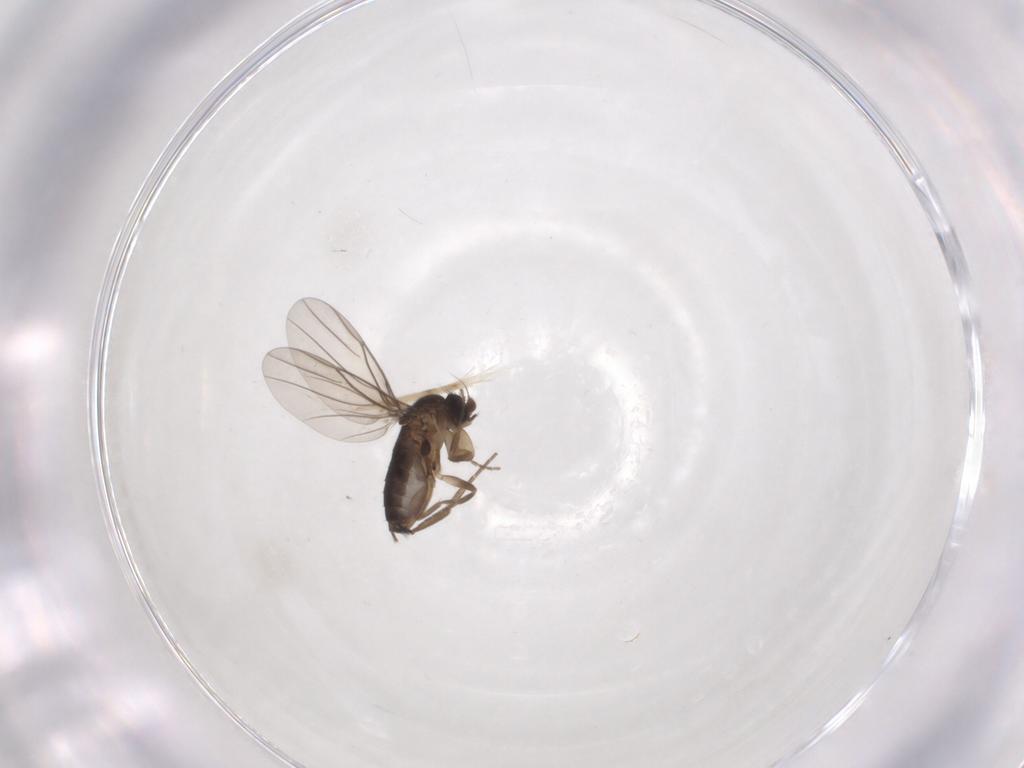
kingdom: Animalia
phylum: Arthropoda
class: Insecta
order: Diptera
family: Phoridae
